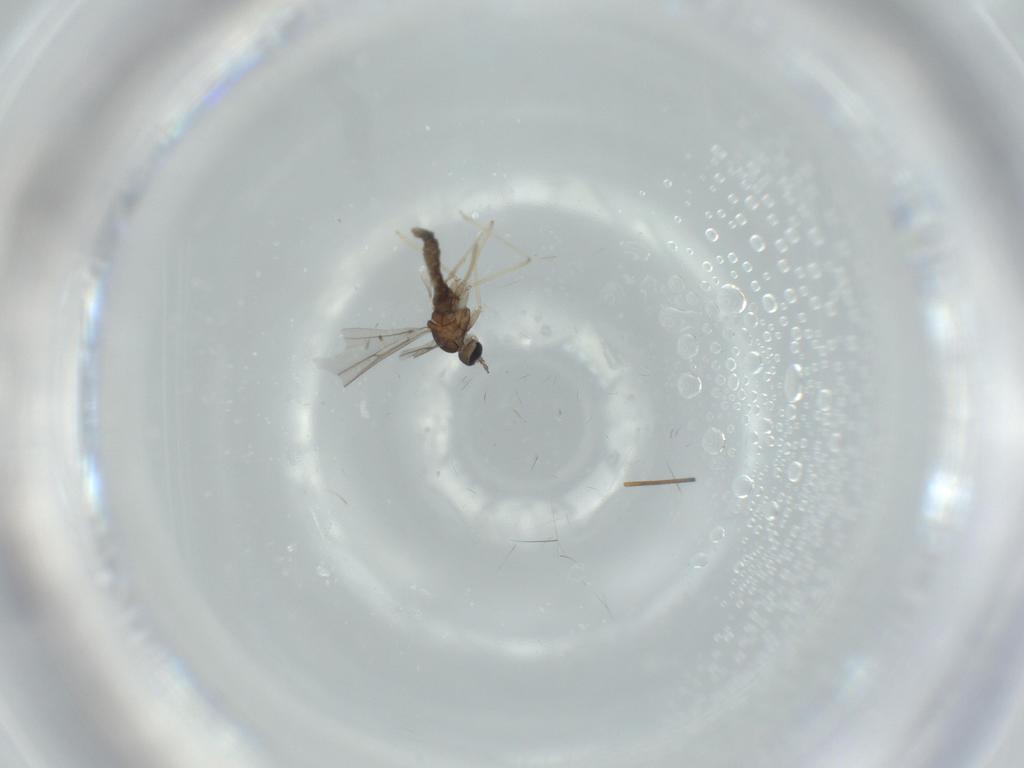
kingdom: Animalia
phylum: Arthropoda
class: Insecta
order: Diptera
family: Cecidomyiidae
